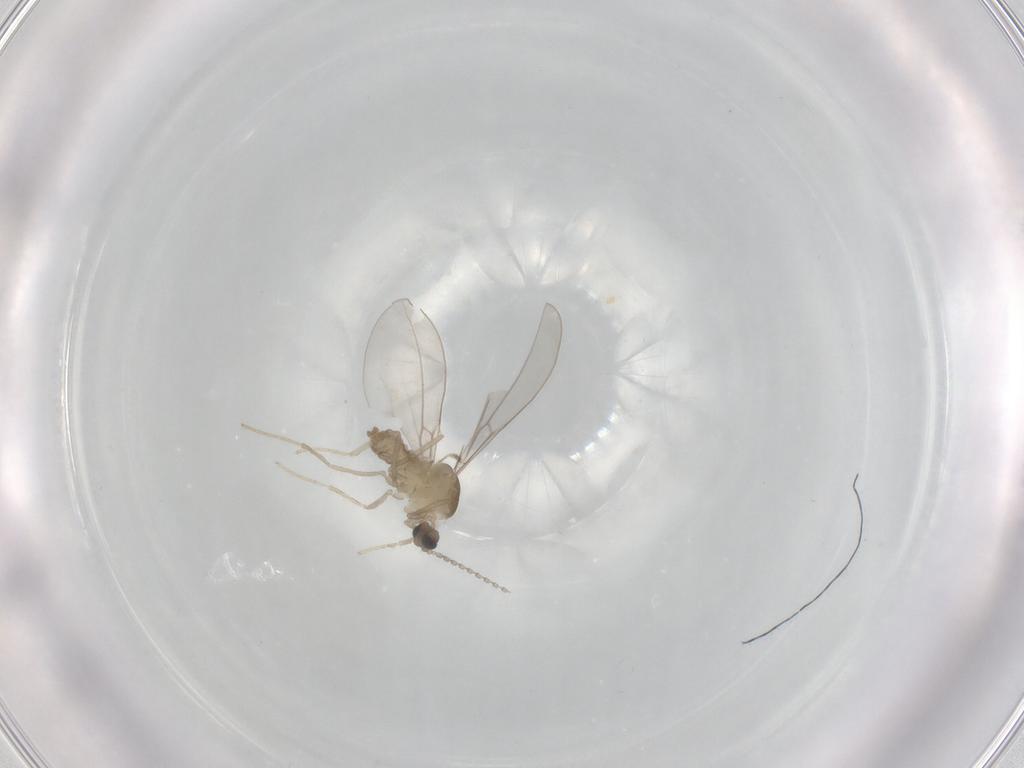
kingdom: Animalia
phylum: Arthropoda
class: Insecta
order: Diptera
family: Cecidomyiidae
